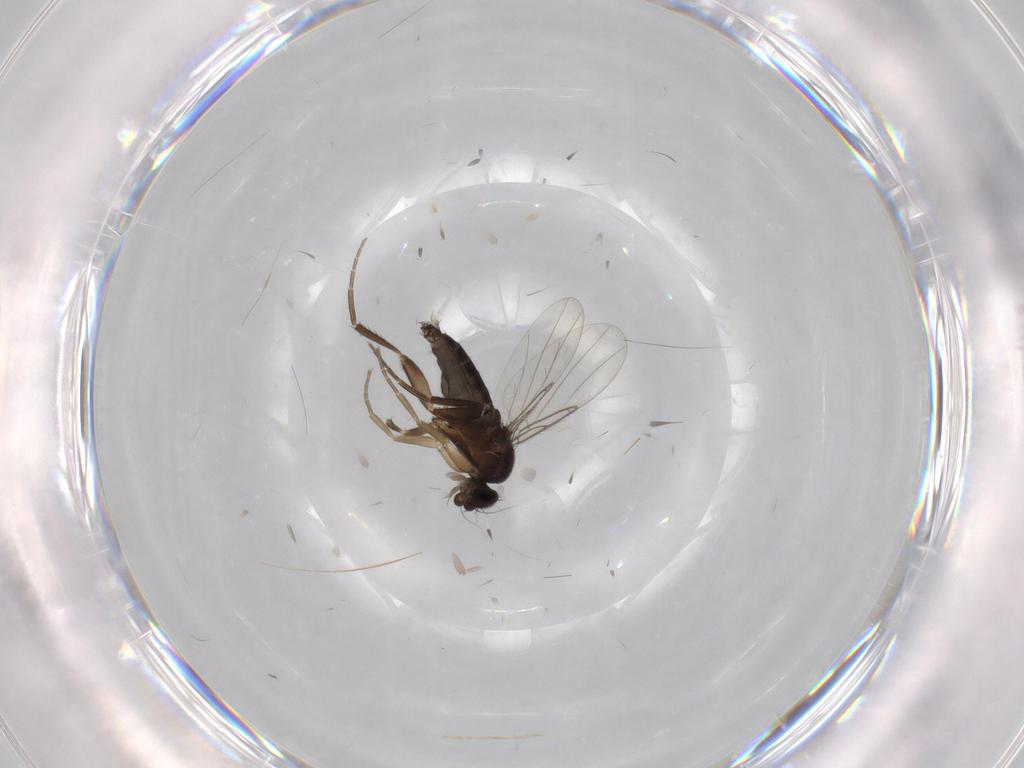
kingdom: Animalia
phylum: Arthropoda
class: Insecta
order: Diptera
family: Phoridae
